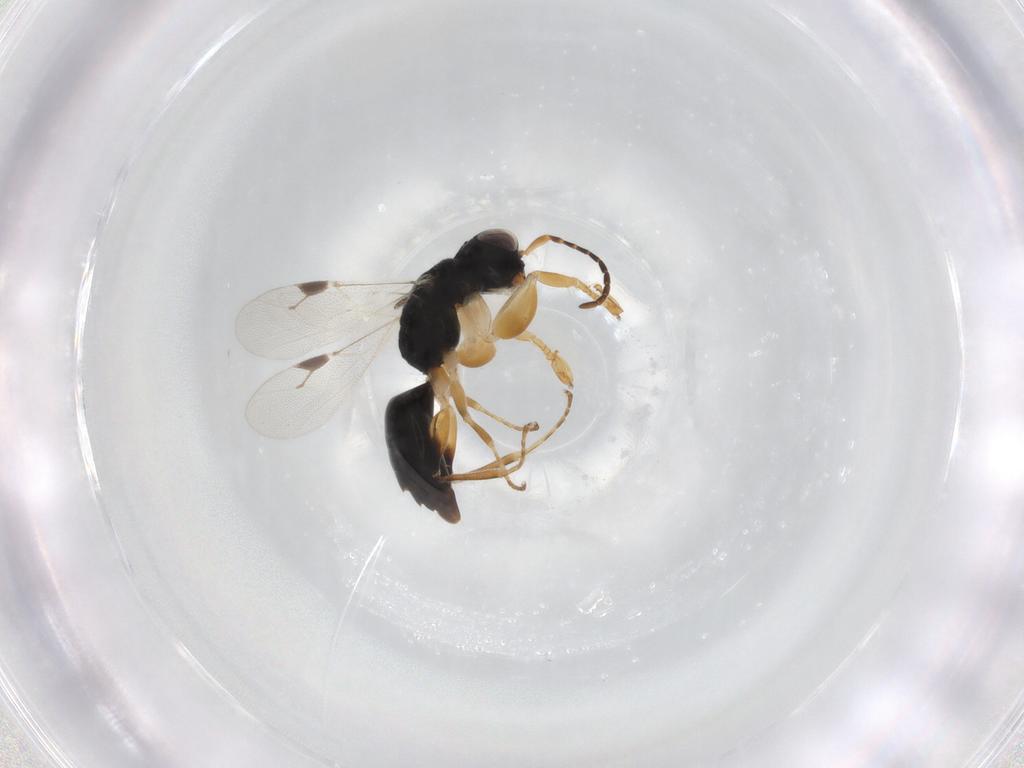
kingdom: Animalia
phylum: Arthropoda
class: Insecta
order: Hymenoptera
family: Dryinidae
